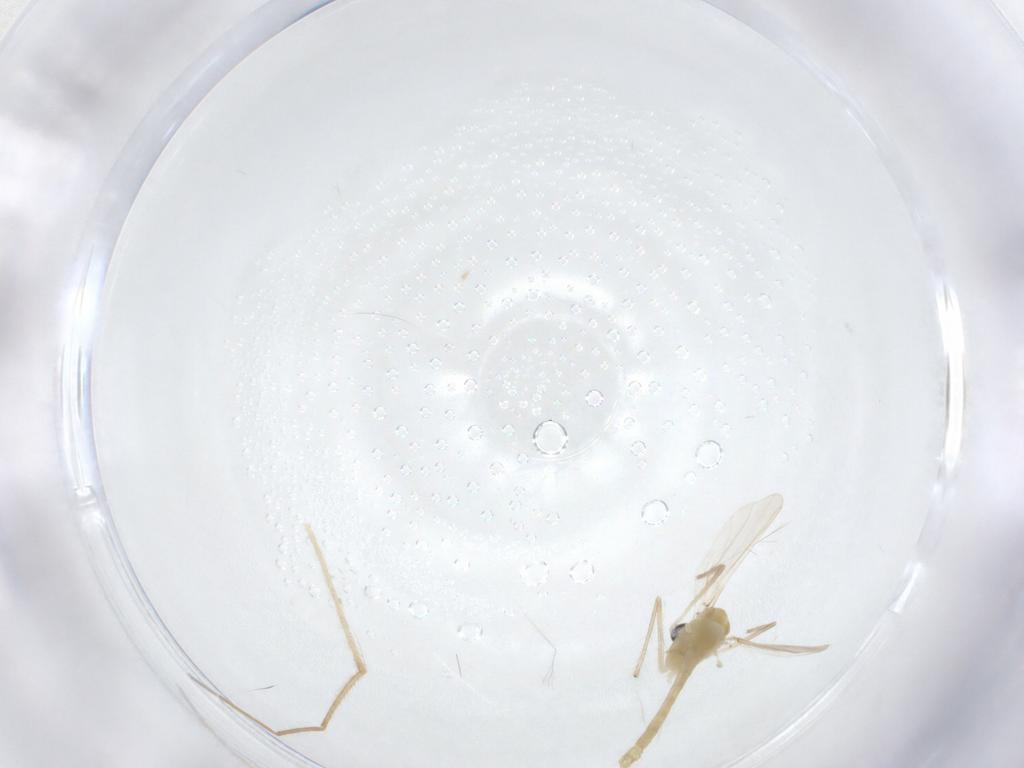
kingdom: Animalia
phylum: Arthropoda
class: Insecta
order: Diptera
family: Chironomidae
